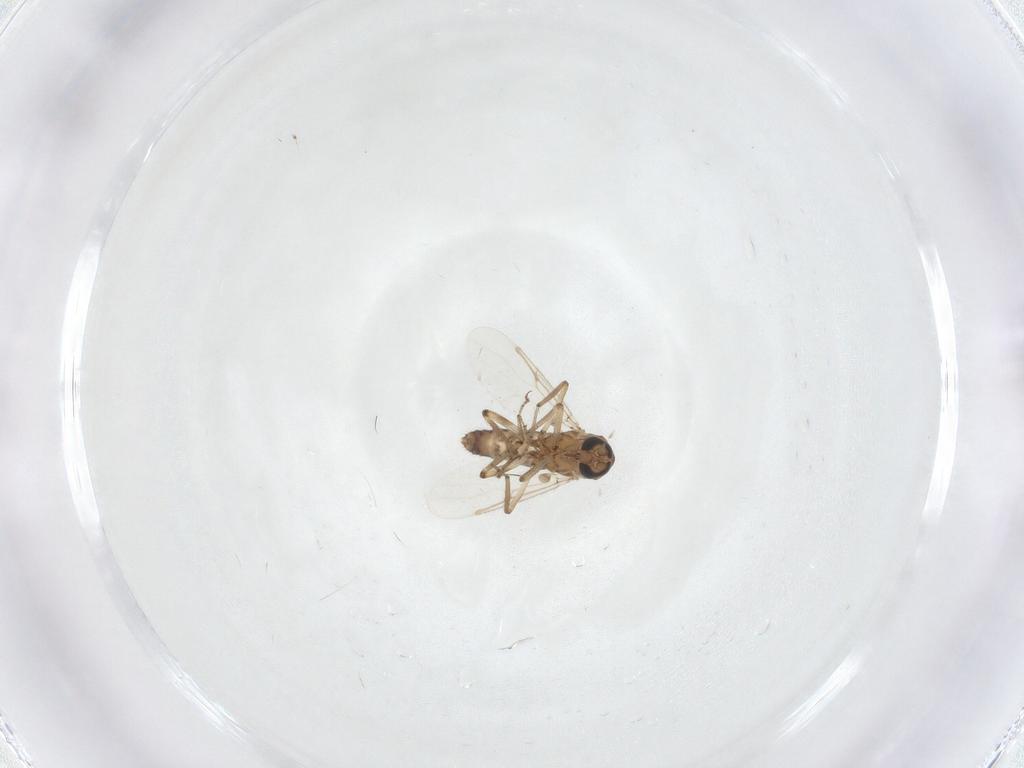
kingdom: Animalia
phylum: Arthropoda
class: Insecta
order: Diptera
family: Ceratopogonidae
